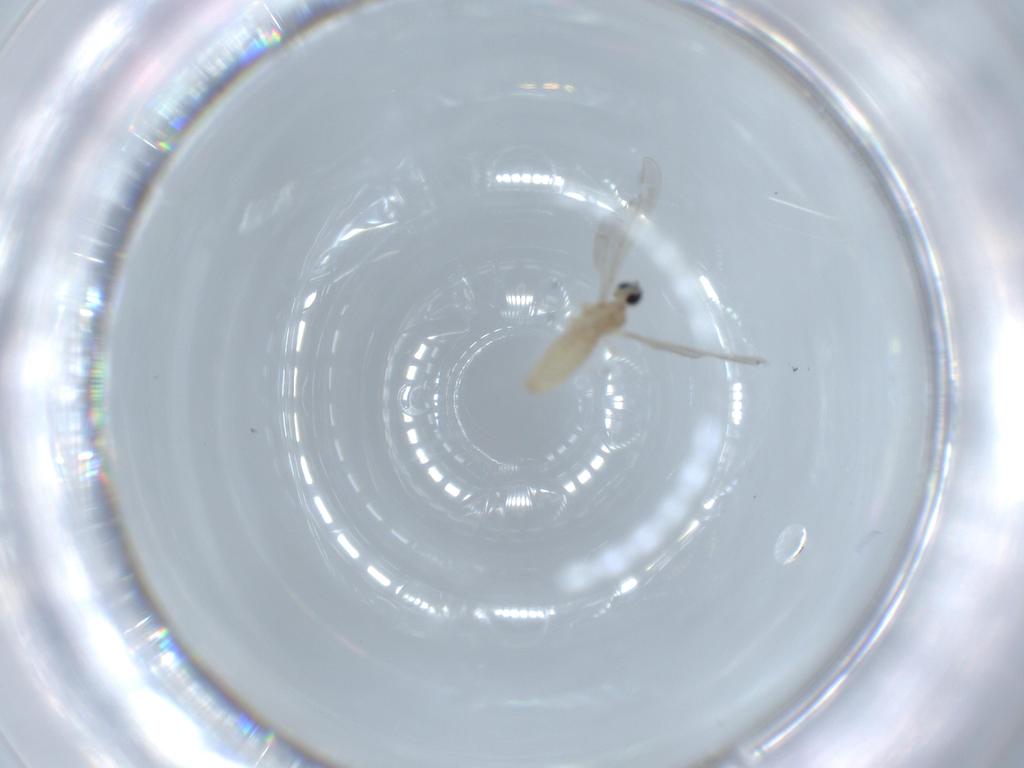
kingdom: Animalia
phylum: Arthropoda
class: Insecta
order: Diptera
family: Cecidomyiidae
